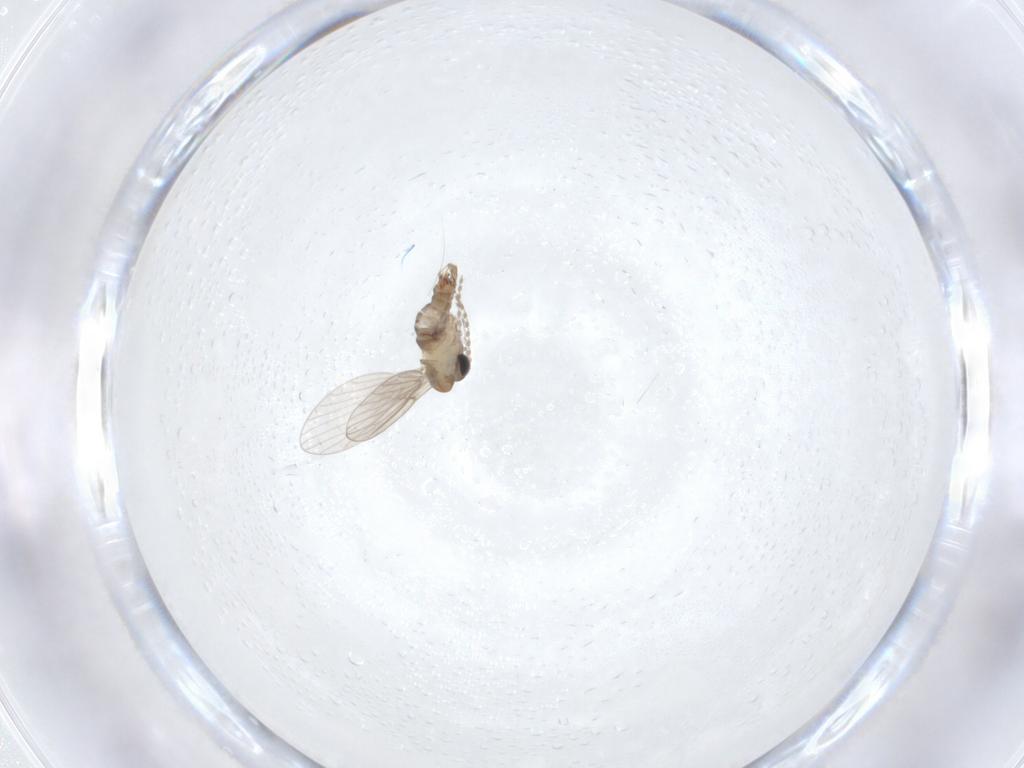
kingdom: Animalia
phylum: Arthropoda
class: Insecta
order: Diptera
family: Psychodidae
